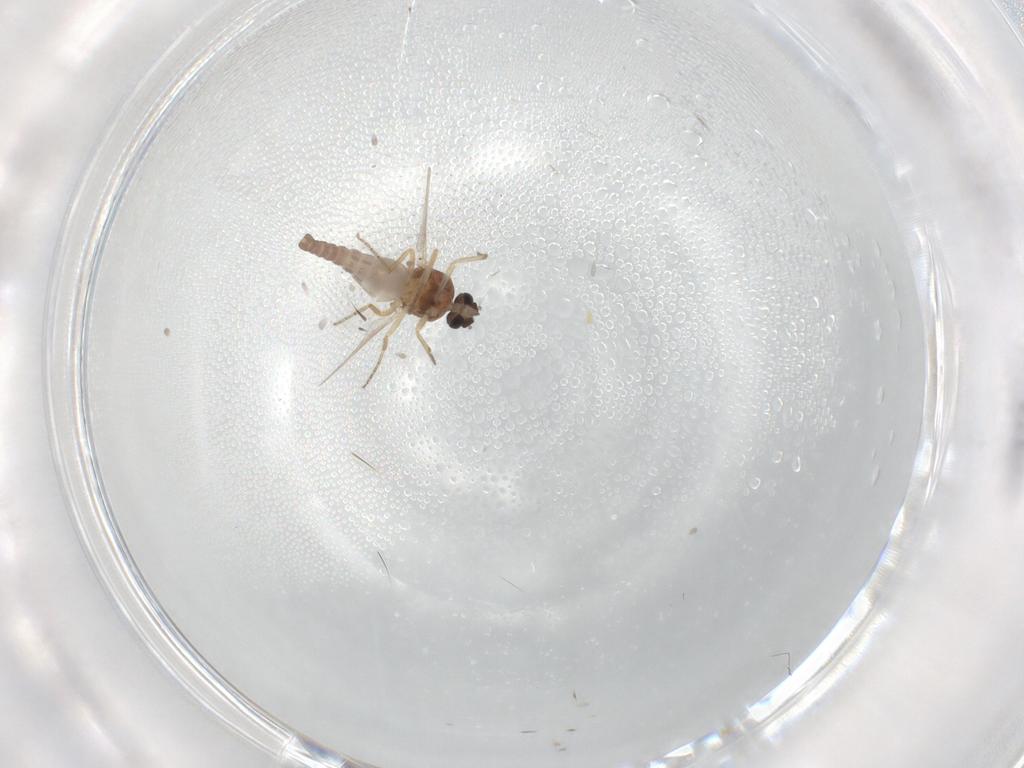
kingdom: Animalia
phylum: Arthropoda
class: Insecta
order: Diptera
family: Ceratopogonidae
